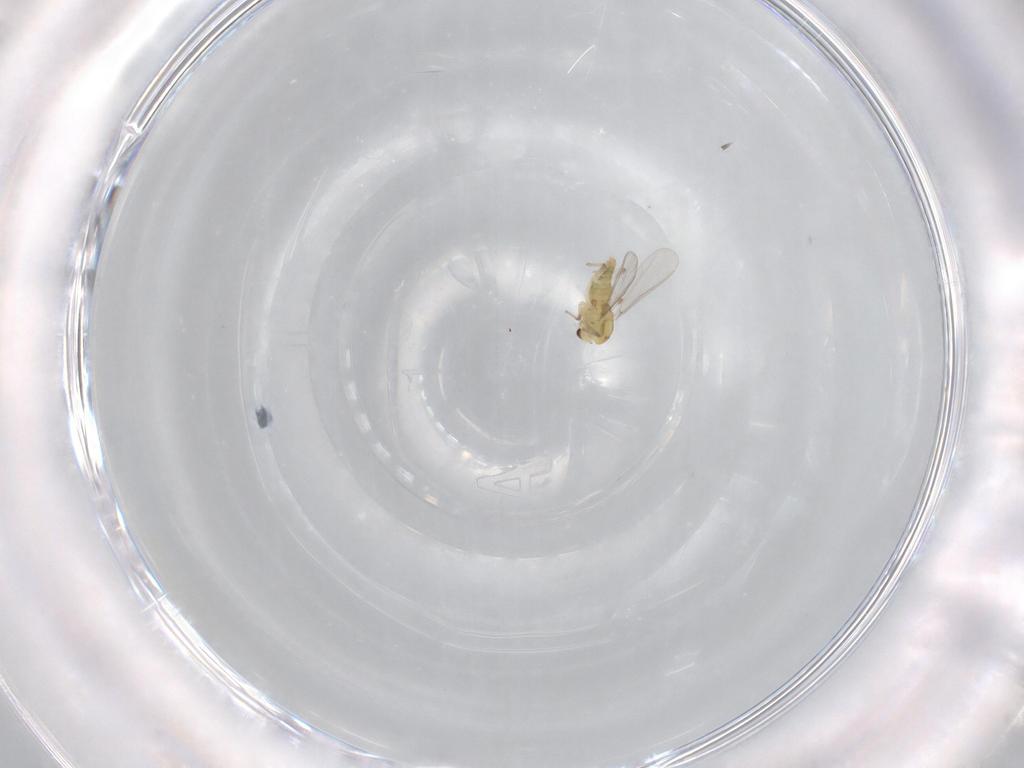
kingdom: Animalia
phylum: Arthropoda
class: Insecta
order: Diptera
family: Chironomidae
